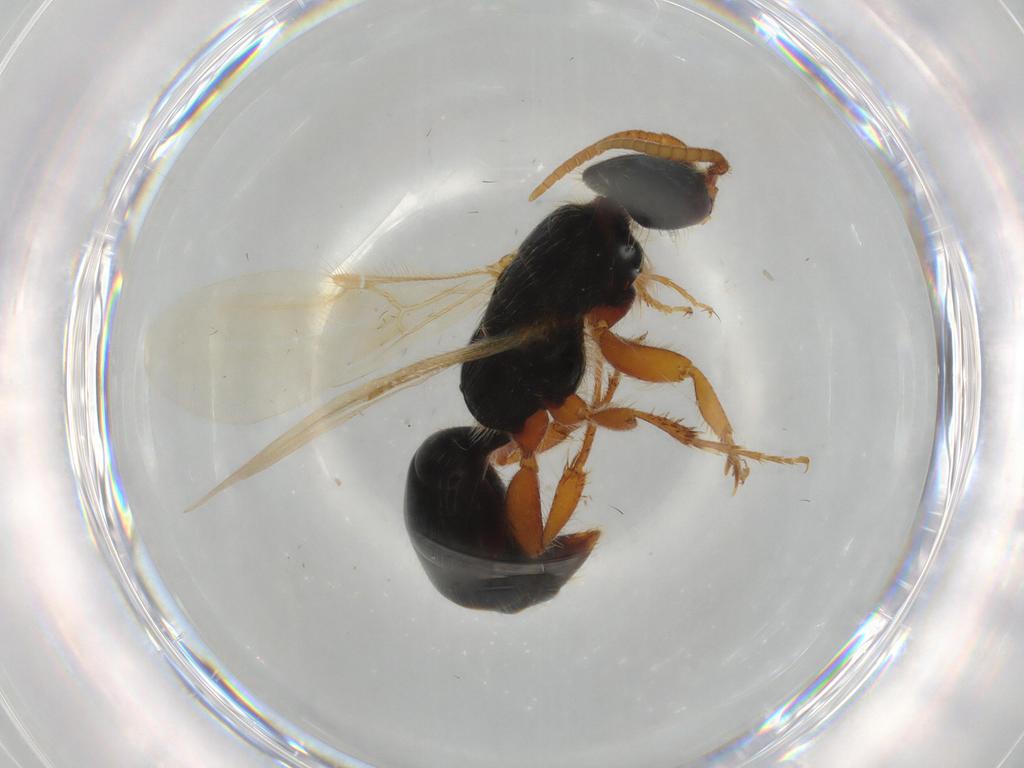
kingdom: Animalia
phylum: Arthropoda
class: Insecta
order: Hymenoptera
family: Bethylidae
